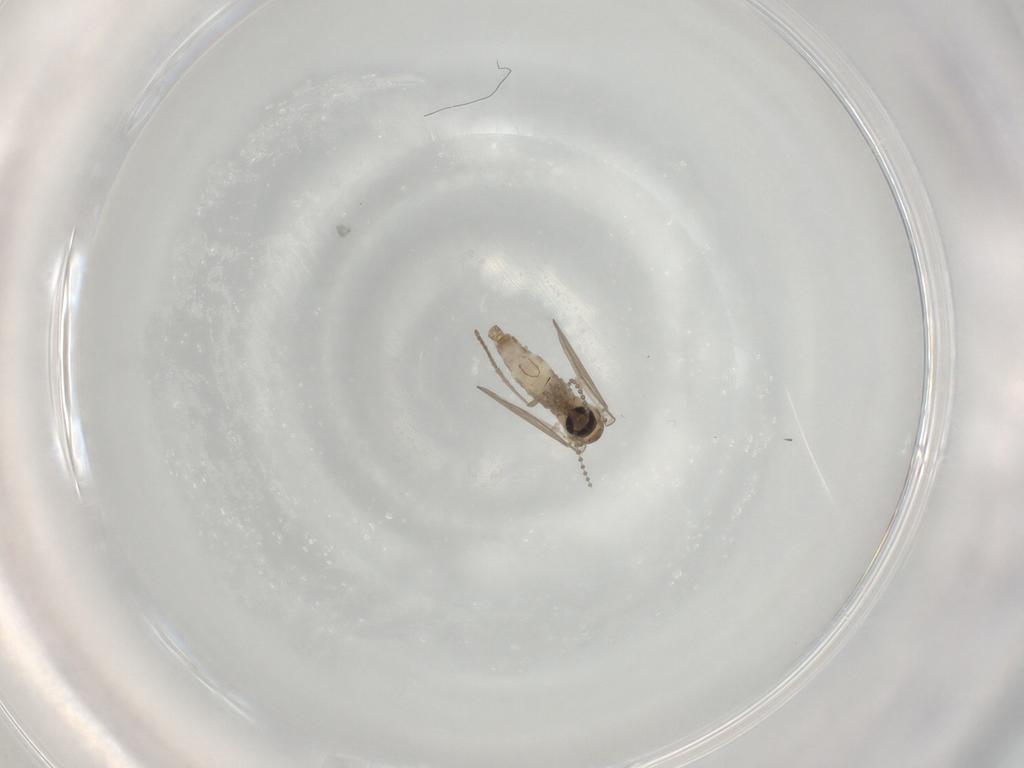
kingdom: Animalia
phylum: Arthropoda
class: Insecta
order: Diptera
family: Psychodidae
